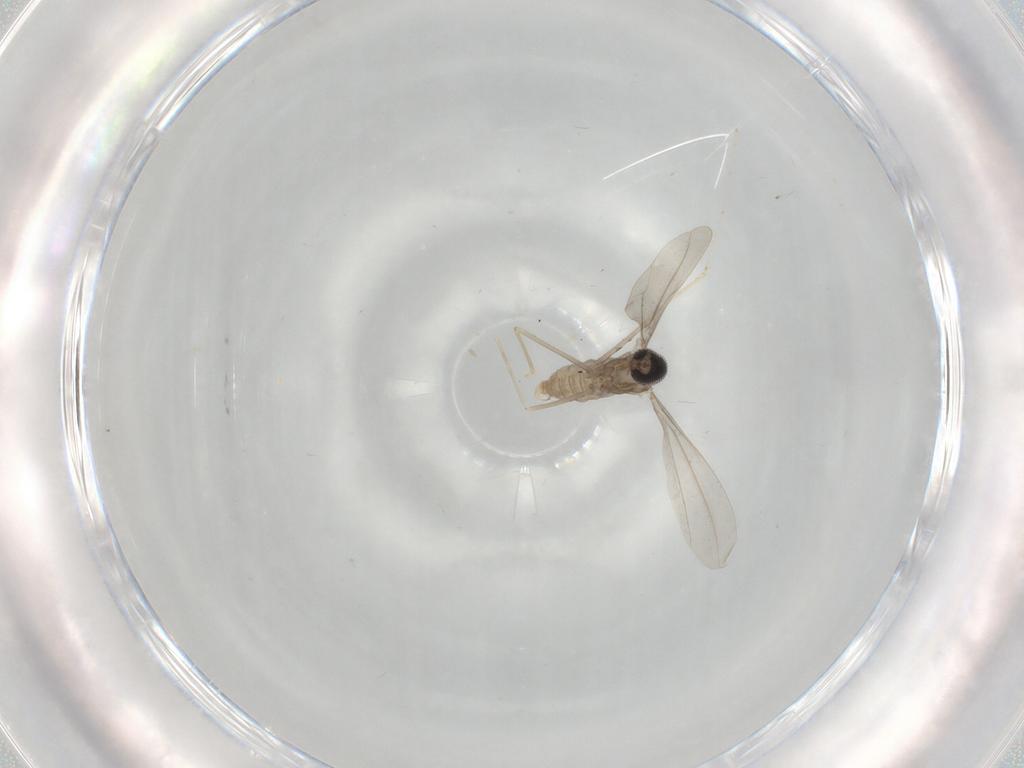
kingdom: Animalia
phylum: Arthropoda
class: Insecta
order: Diptera
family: Cecidomyiidae
